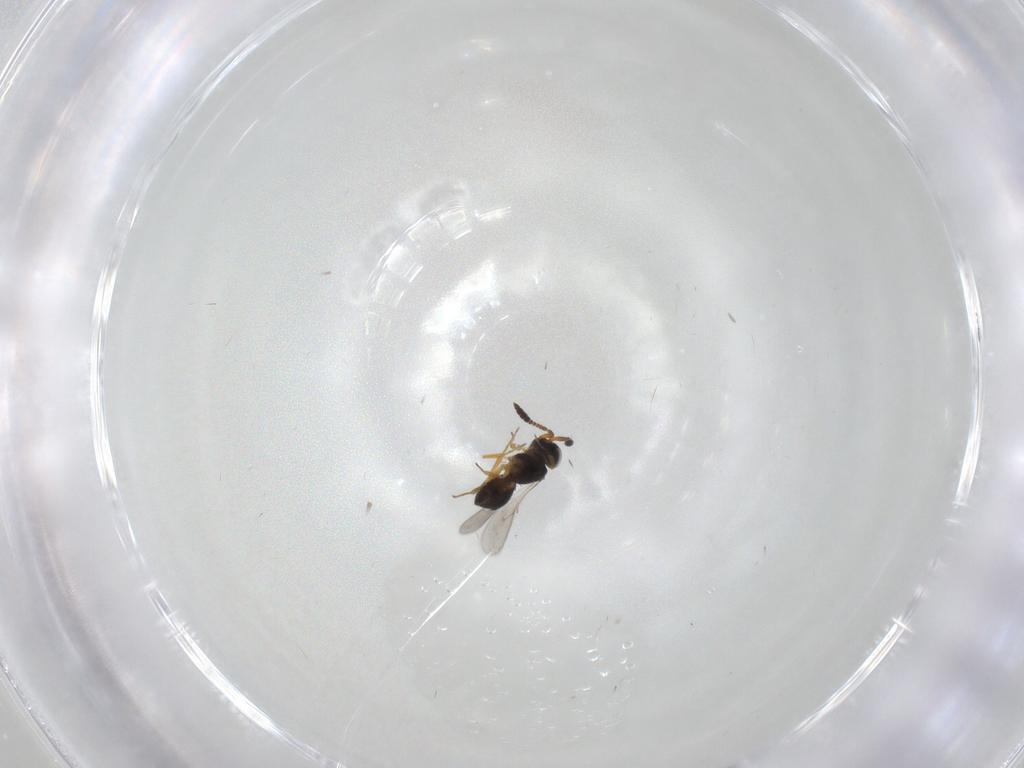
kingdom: Animalia
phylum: Arthropoda
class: Insecta
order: Hymenoptera
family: Scelionidae
